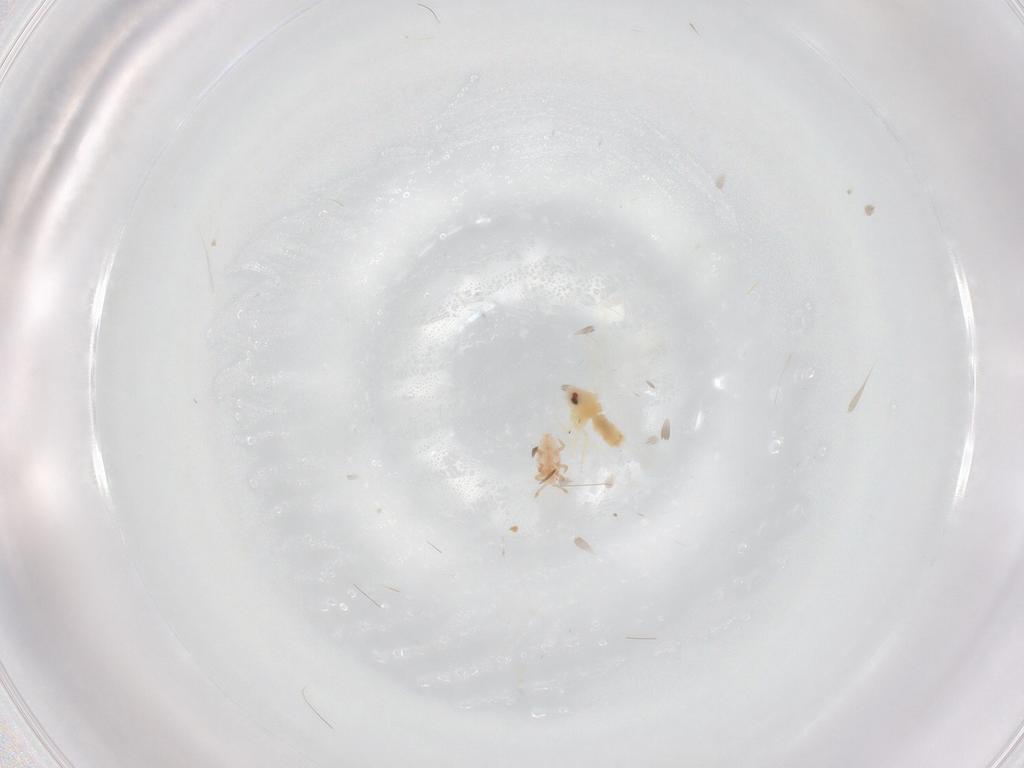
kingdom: Animalia
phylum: Arthropoda
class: Insecta
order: Hemiptera
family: Aleyrodidae
